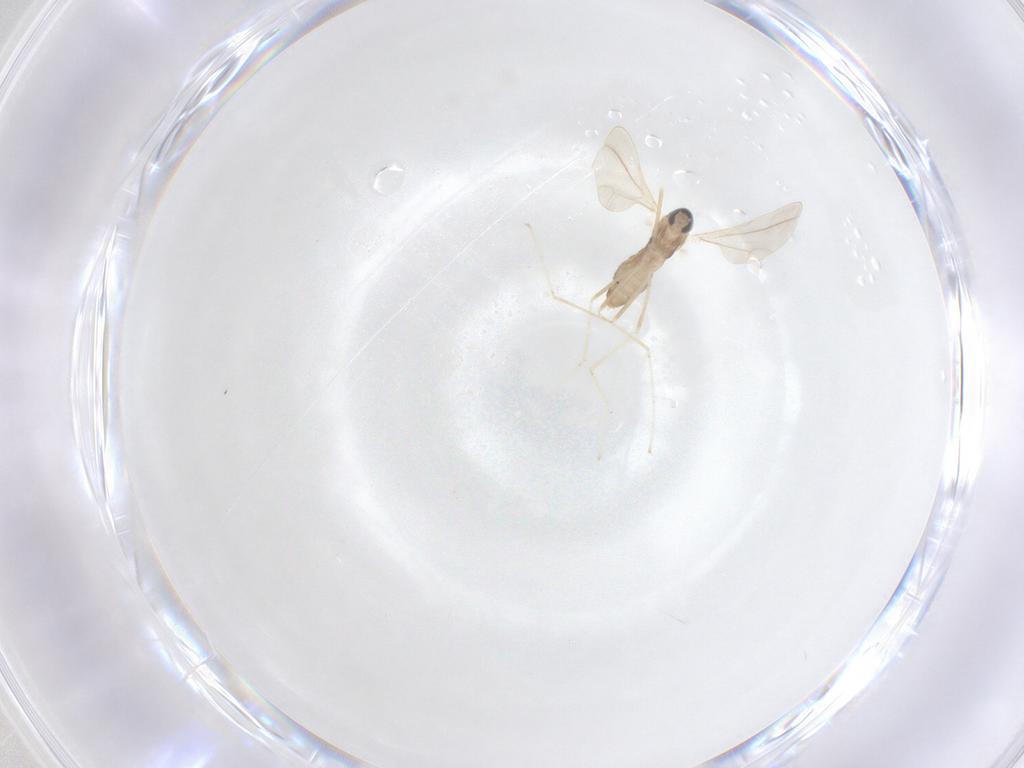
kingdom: Animalia
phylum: Arthropoda
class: Insecta
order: Diptera
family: Cecidomyiidae
